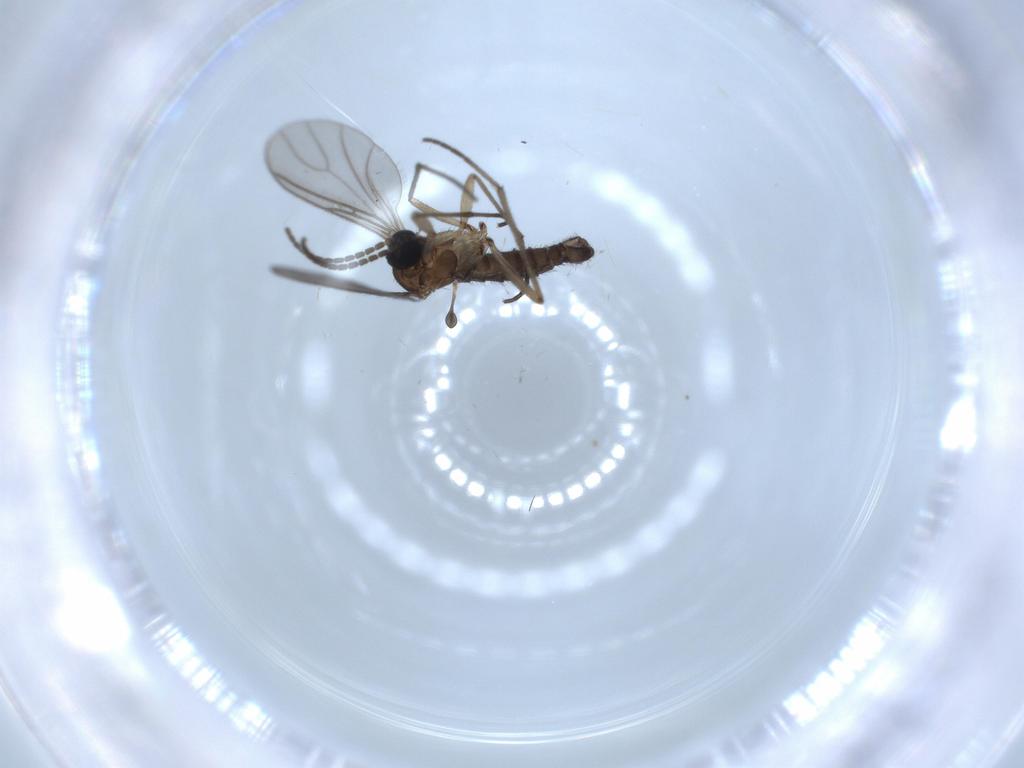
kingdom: Animalia
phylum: Arthropoda
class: Insecta
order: Diptera
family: Sciaridae
